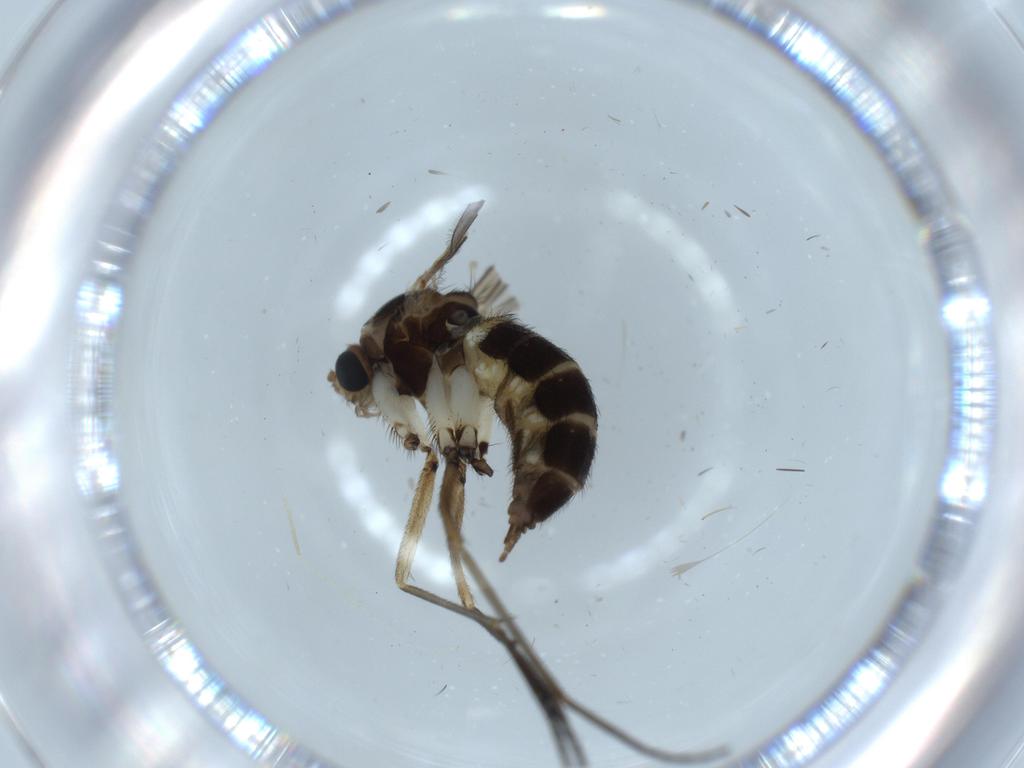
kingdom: Animalia
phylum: Arthropoda
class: Insecta
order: Diptera
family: Sciaridae
